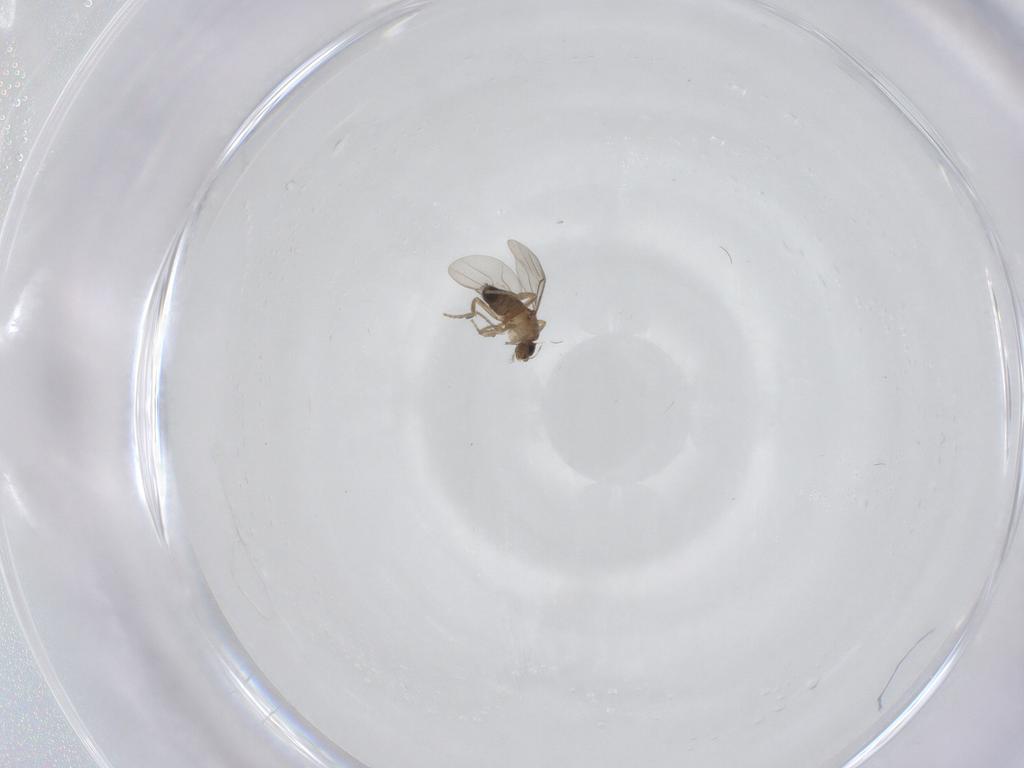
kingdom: Animalia
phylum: Arthropoda
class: Insecta
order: Diptera
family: Phoridae
